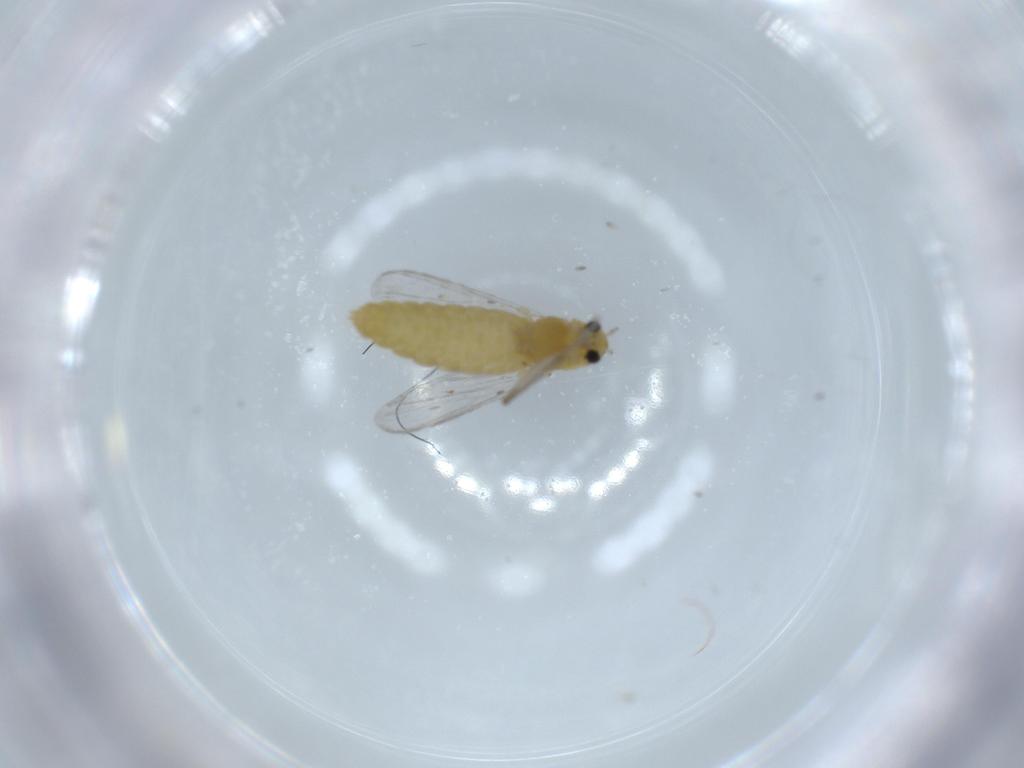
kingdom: Animalia
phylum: Arthropoda
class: Insecta
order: Diptera
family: Chironomidae
